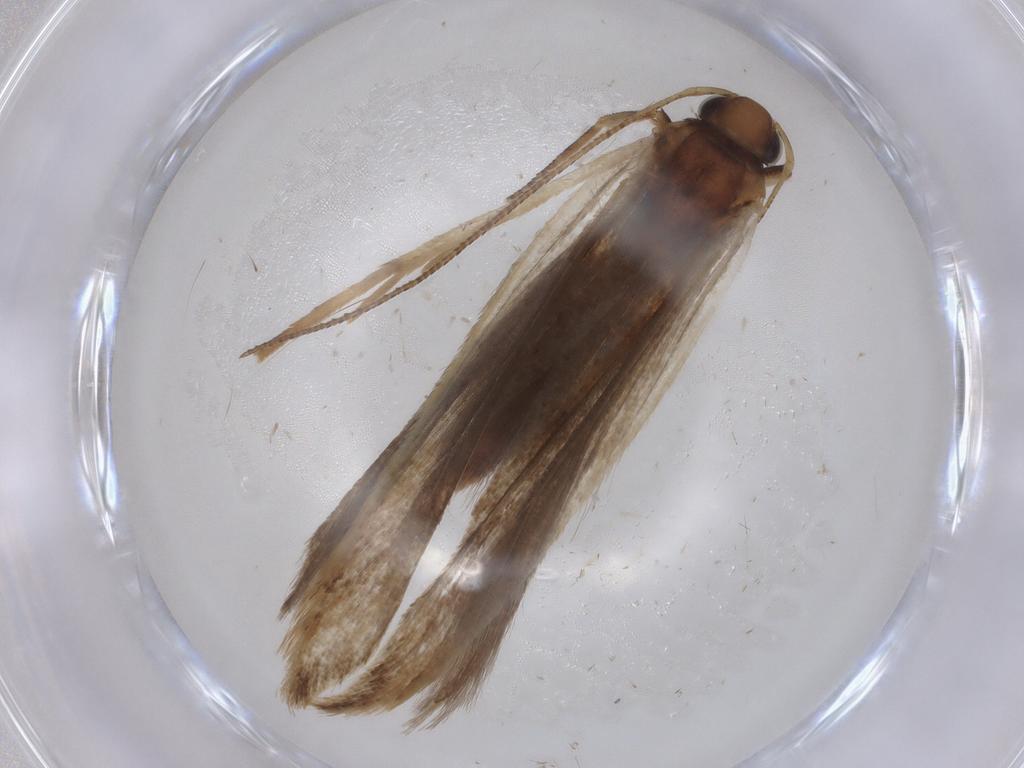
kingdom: Animalia
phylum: Arthropoda
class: Insecta
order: Lepidoptera
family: Gelechiidae
